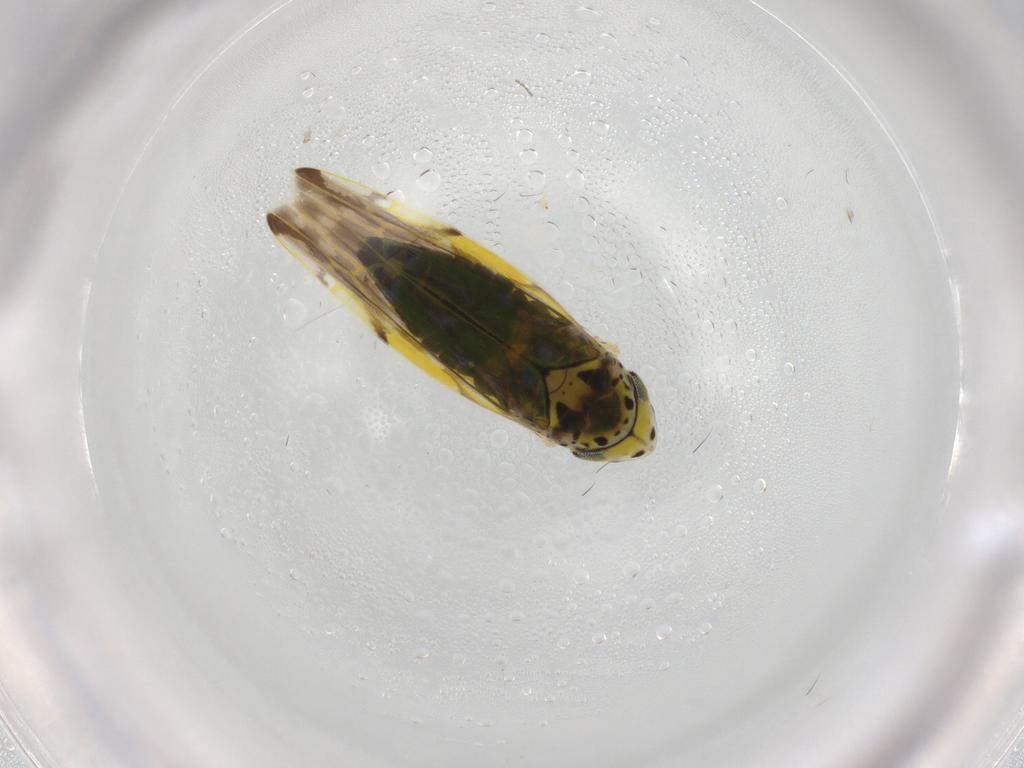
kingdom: Animalia
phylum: Arthropoda
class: Insecta
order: Hemiptera
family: Cicadellidae
